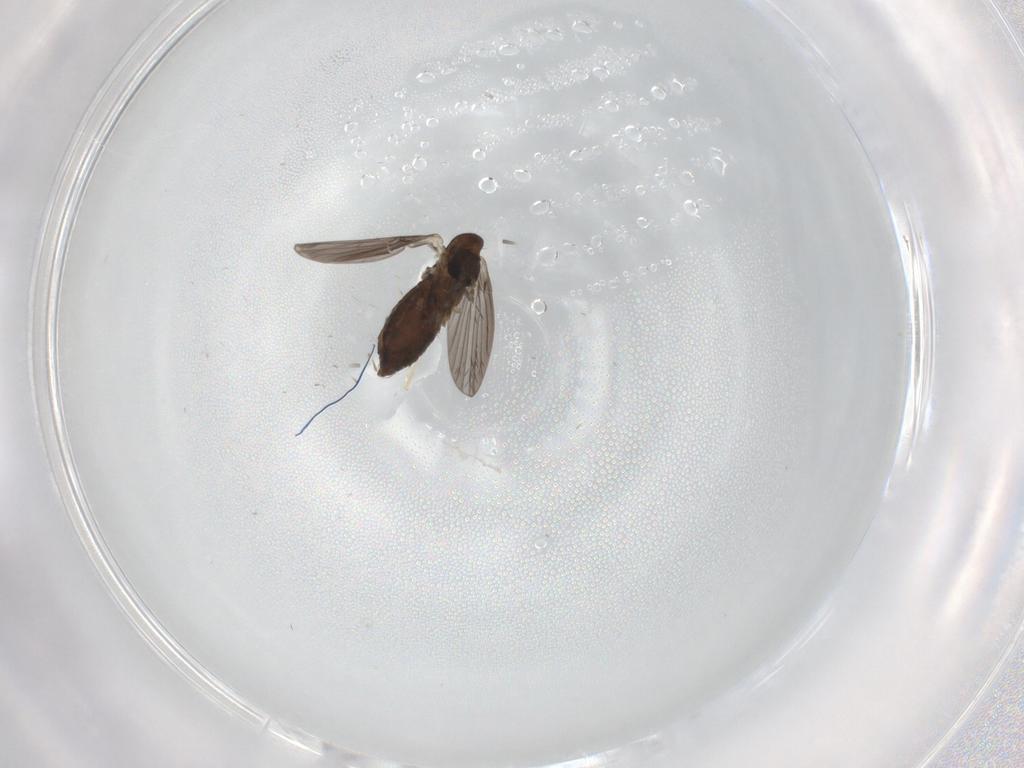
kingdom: Animalia
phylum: Arthropoda
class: Insecta
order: Diptera
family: Psychodidae
